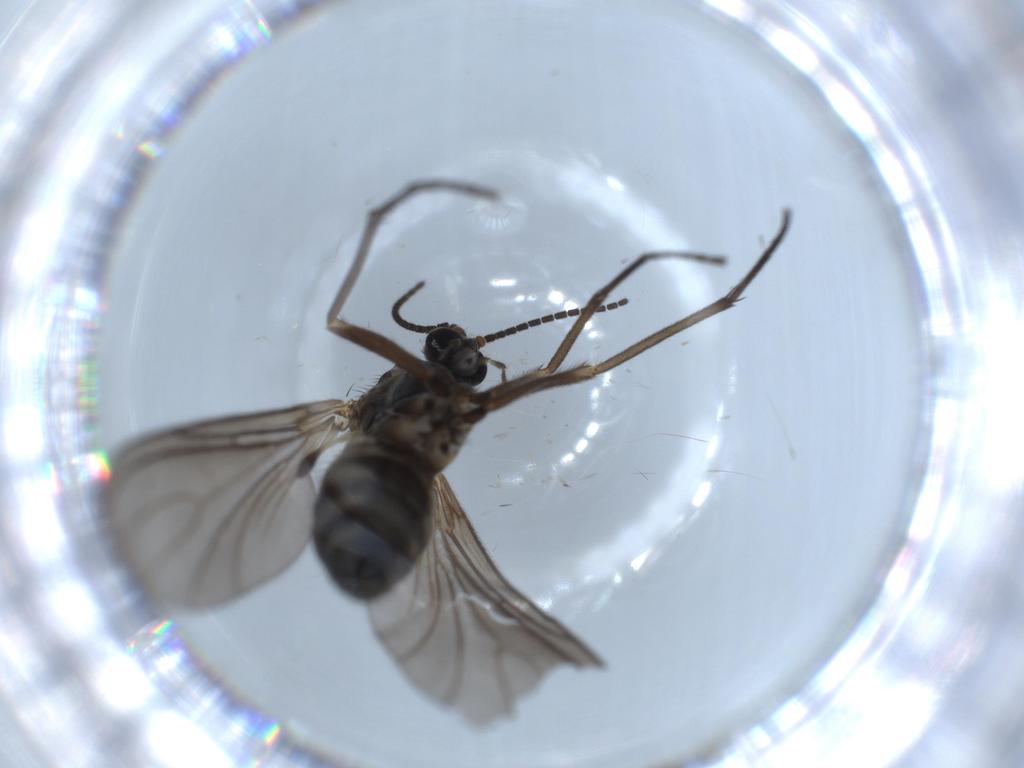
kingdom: Animalia
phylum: Arthropoda
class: Insecta
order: Diptera
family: Sciaridae
